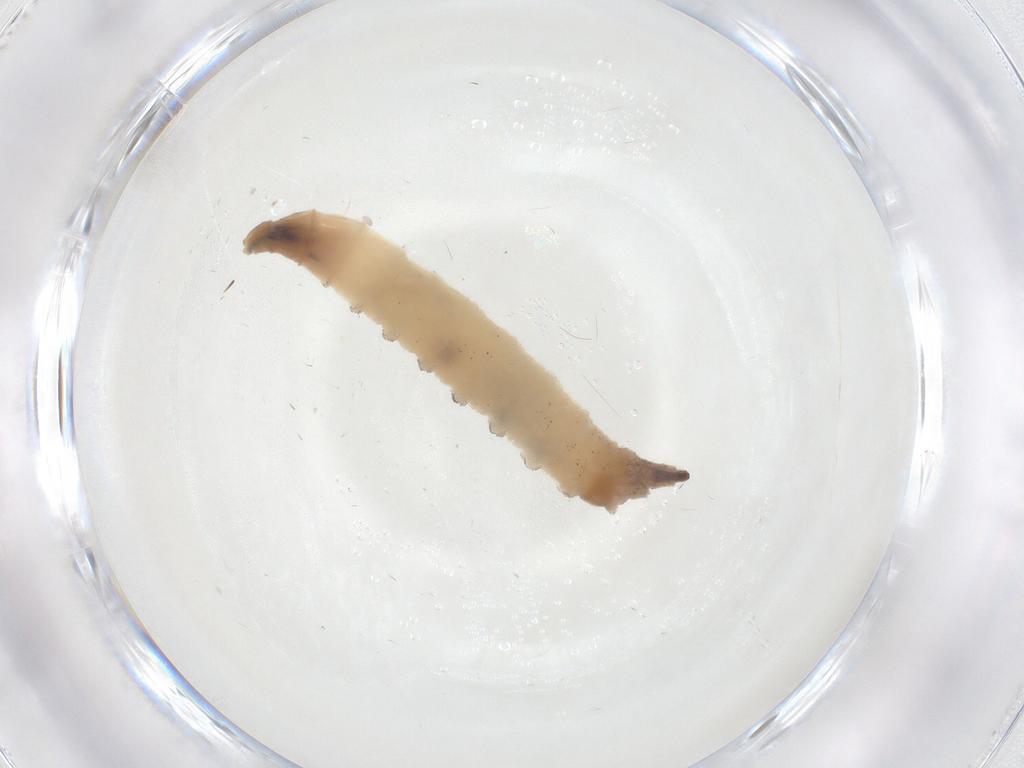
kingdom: Animalia
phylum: Arthropoda
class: Insecta
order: Diptera
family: Drosophilidae
